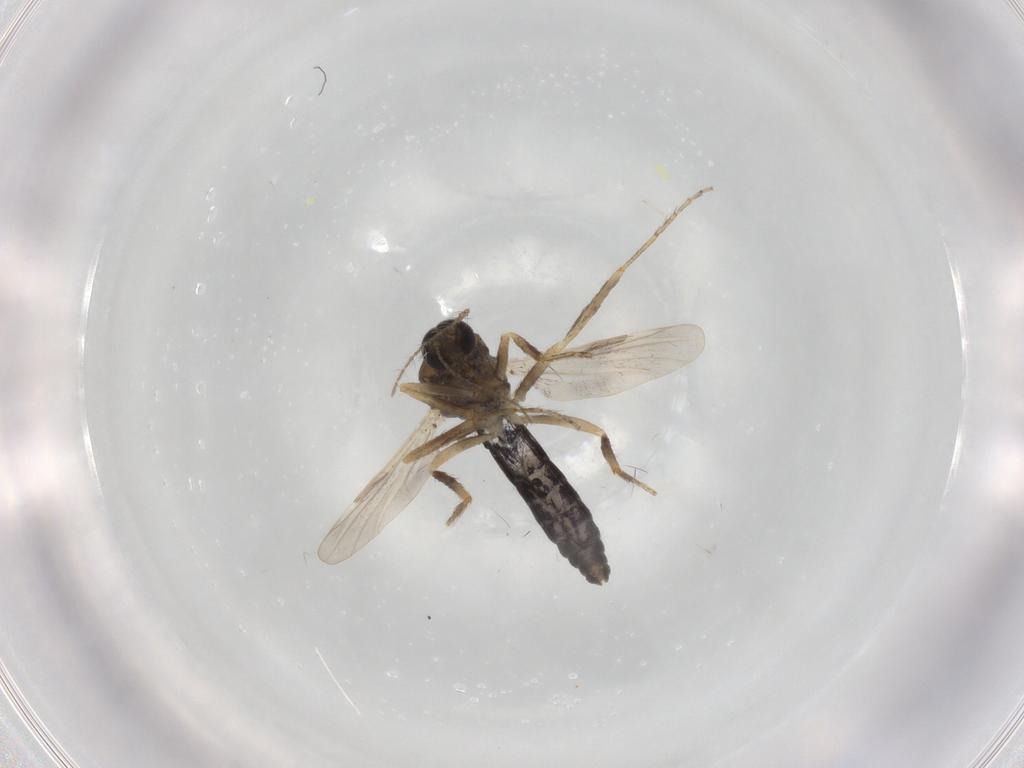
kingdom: Animalia
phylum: Arthropoda
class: Insecta
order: Diptera
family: Ceratopogonidae
